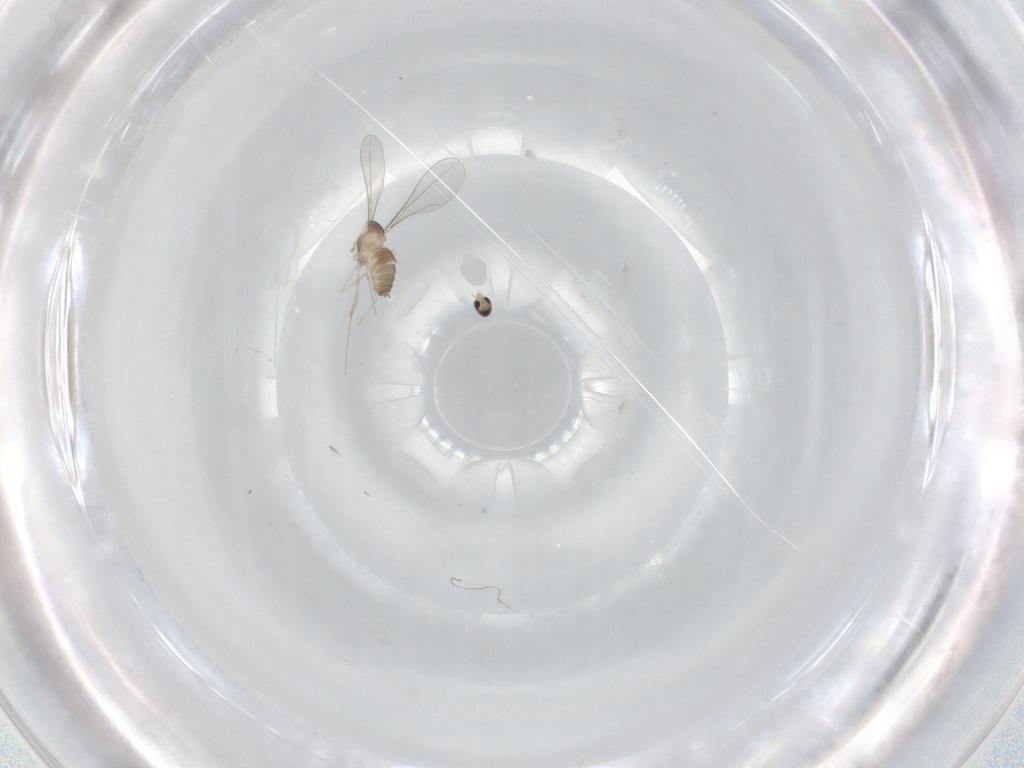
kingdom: Animalia
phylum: Arthropoda
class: Insecta
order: Diptera
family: Cecidomyiidae
